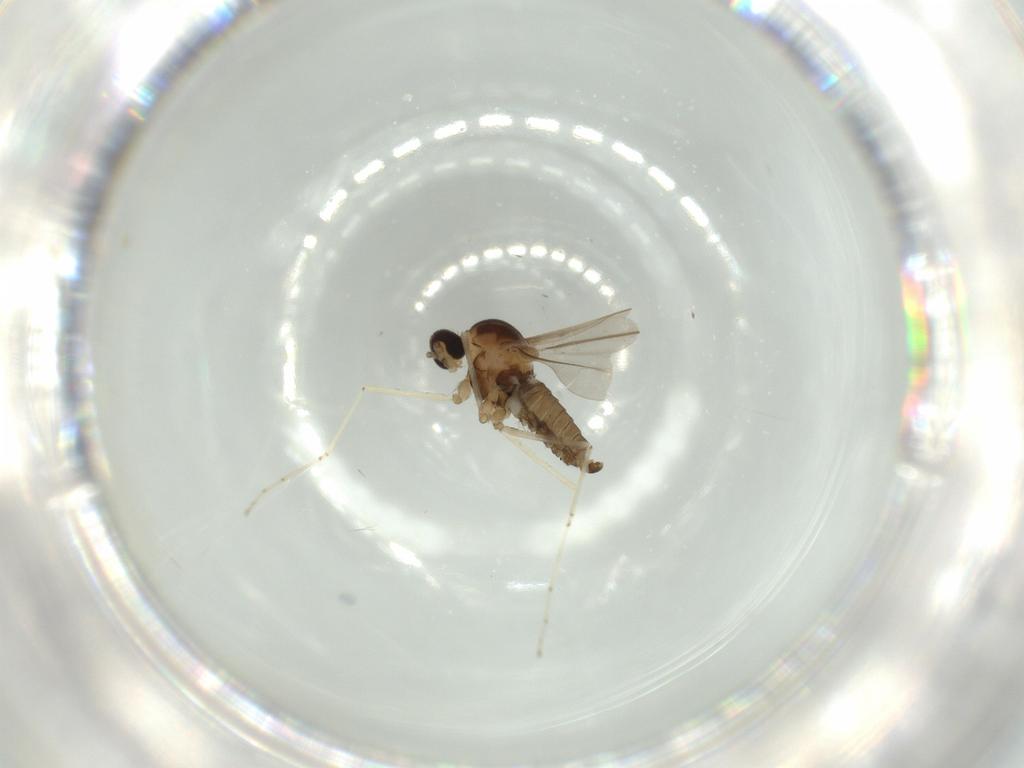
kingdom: Animalia
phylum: Arthropoda
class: Insecta
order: Diptera
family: Cecidomyiidae
